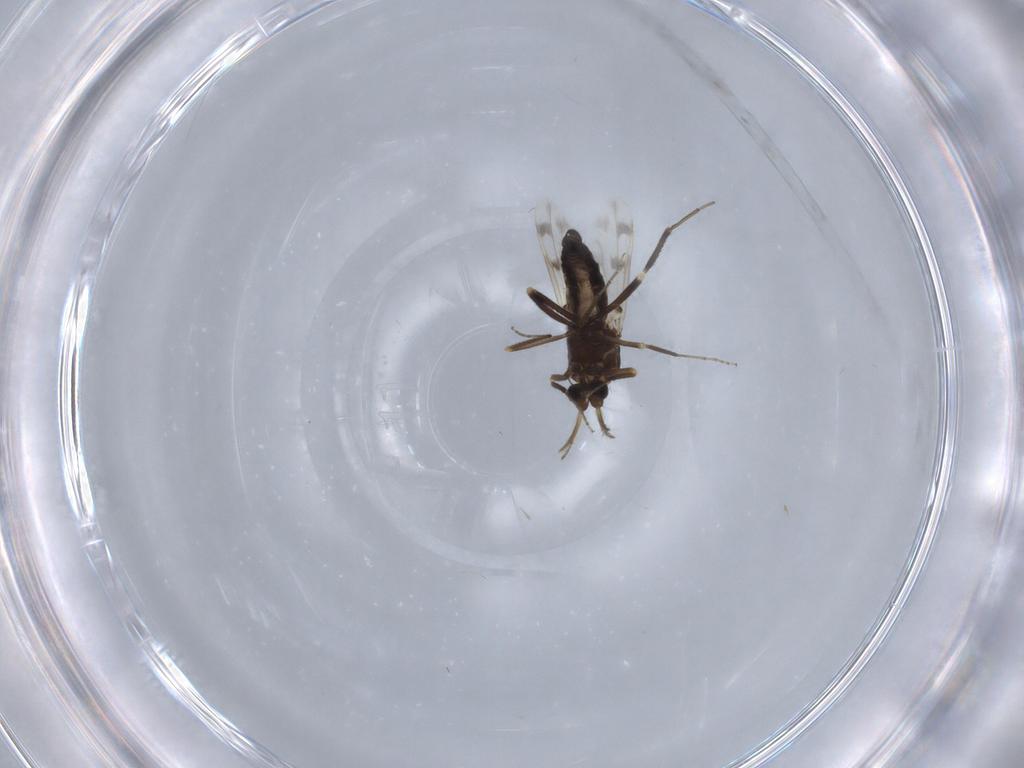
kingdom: Animalia
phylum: Arthropoda
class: Insecta
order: Diptera
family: Ceratopogonidae
